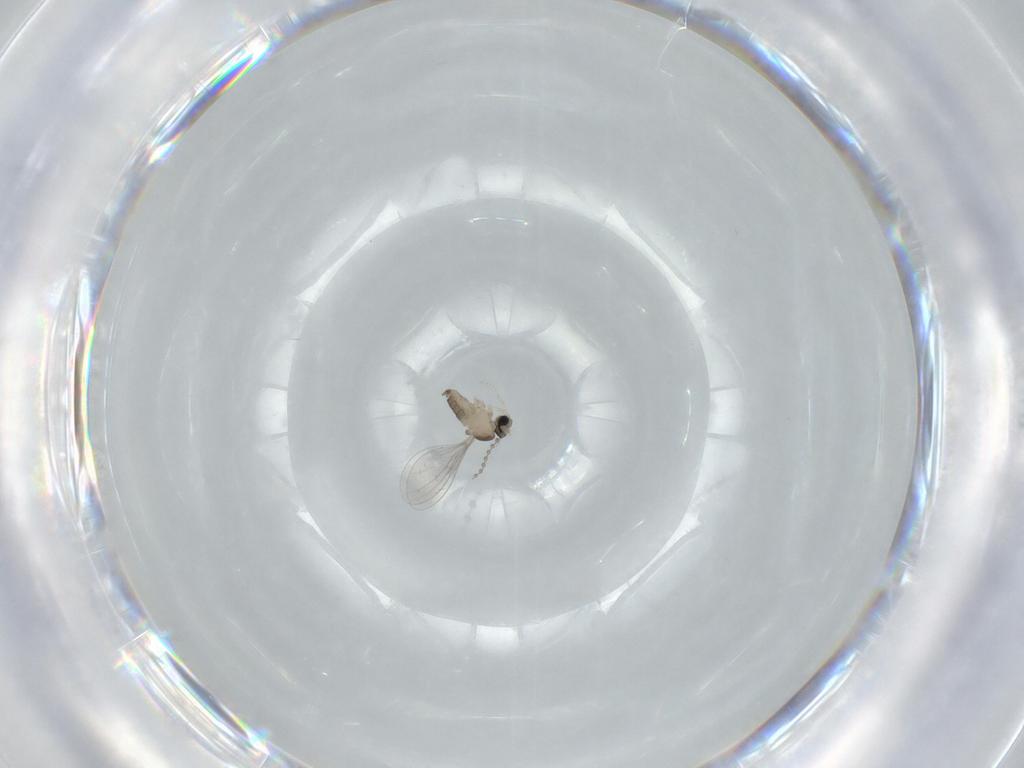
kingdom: Animalia
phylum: Arthropoda
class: Insecta
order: Diptera
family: Cecidomyiidae
